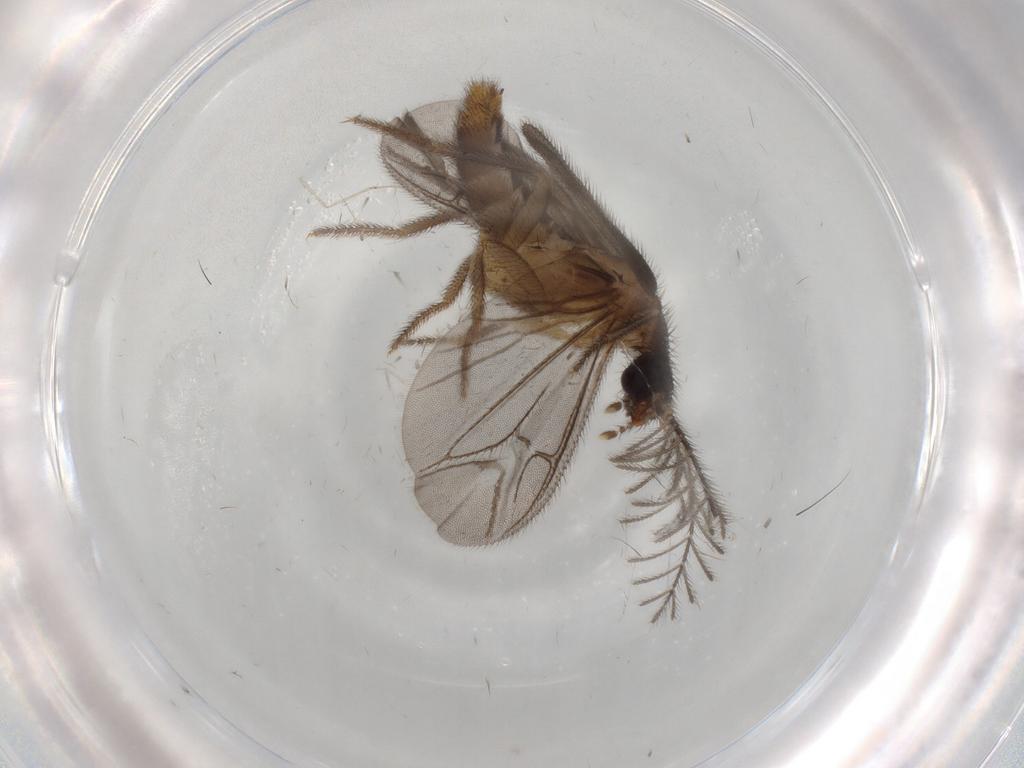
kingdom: Animalia
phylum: Arthropoda
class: Insecta
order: Coleoptera
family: Phengodidae
